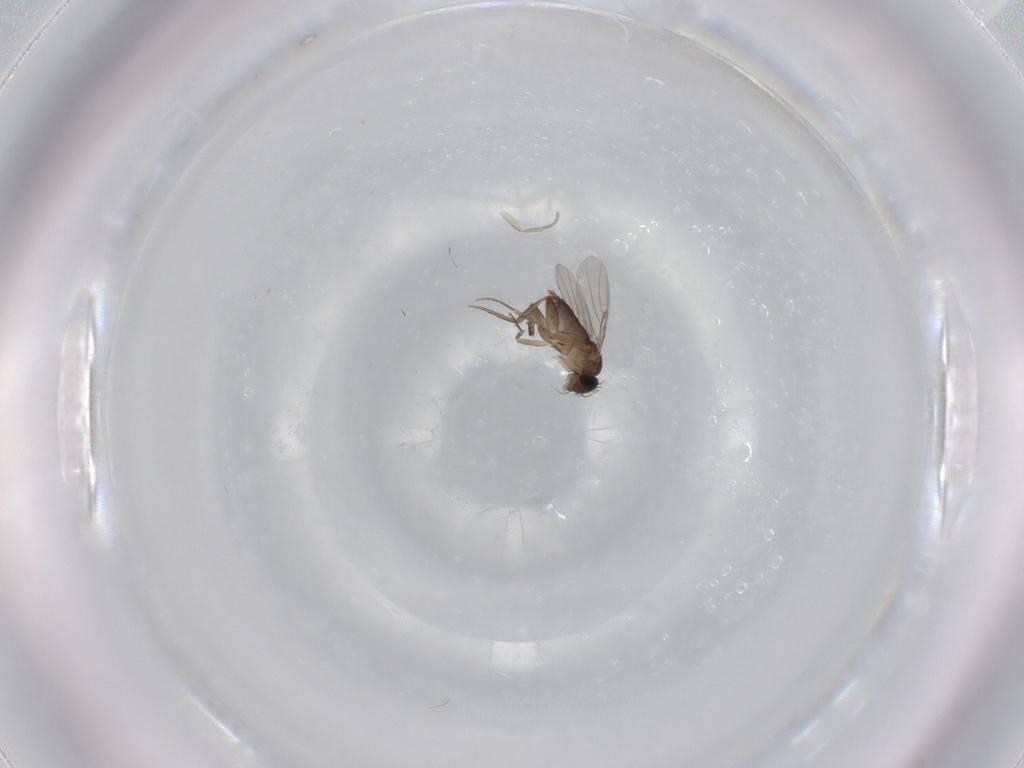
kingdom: Animalia
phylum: Arthropoda
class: Insecta
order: Diptera
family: Phoridae
